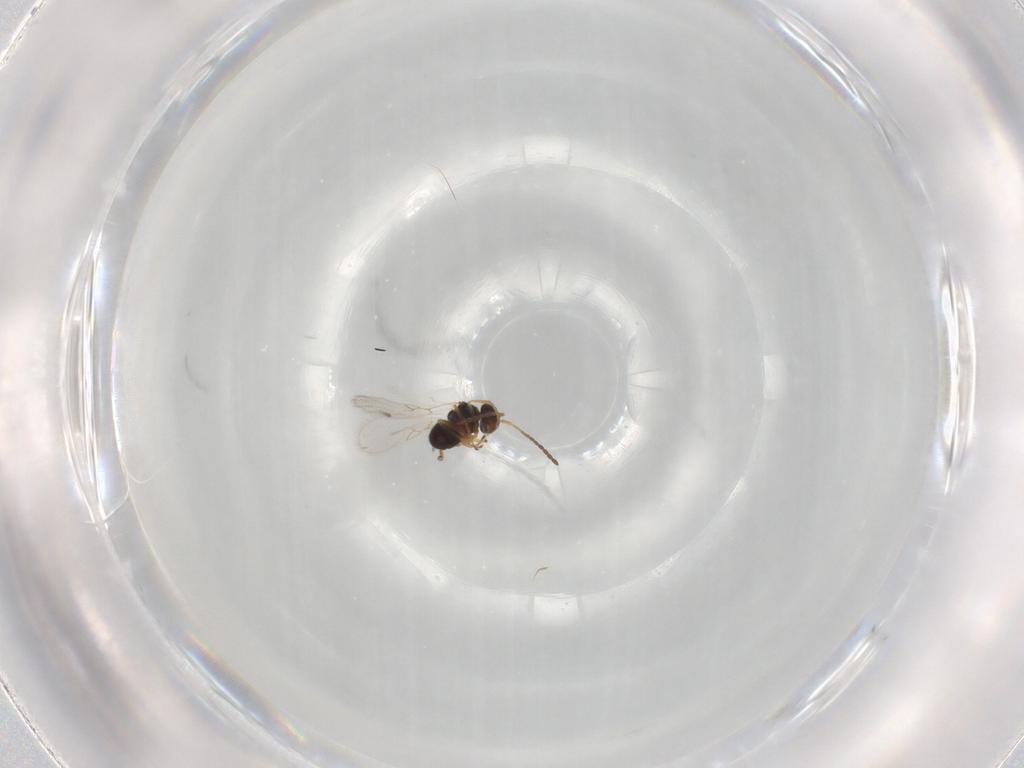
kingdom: Animalia
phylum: Arthropoda
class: Insecta
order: Hymenoptera
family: Figitidae
